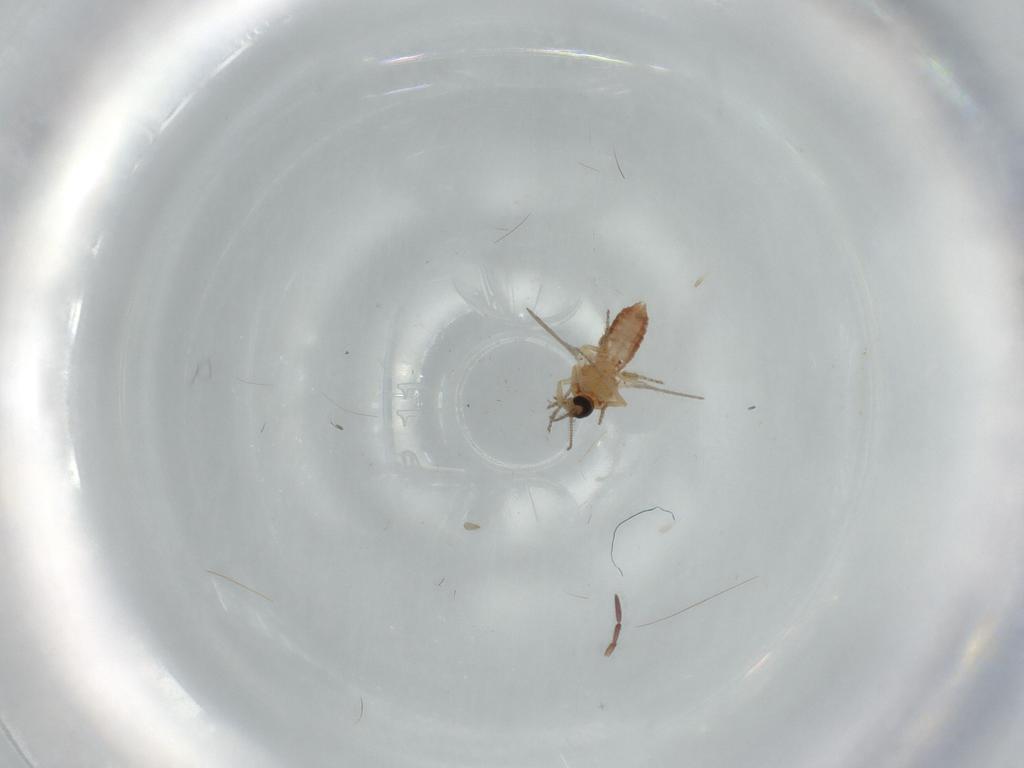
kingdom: Animalia
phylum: Arthropoda
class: Insecta
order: Diptera
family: Ceratopogonidae
